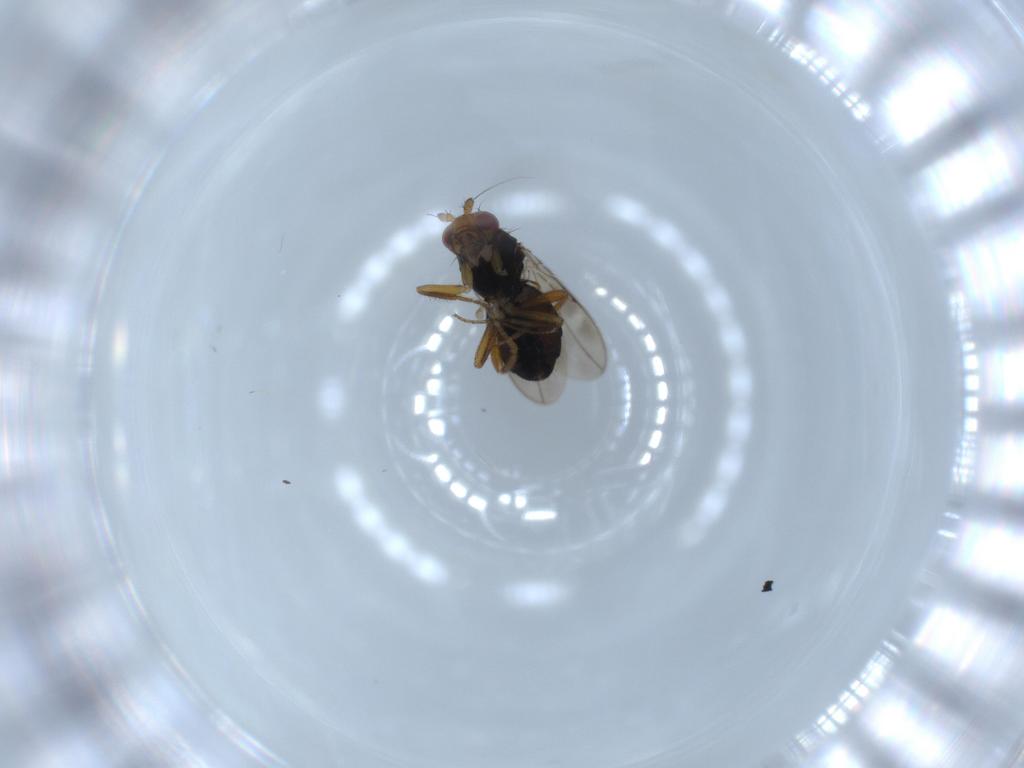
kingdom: Animalia
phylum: Arthropoda
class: Insecta
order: Diptera
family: Sphaeroceridae
